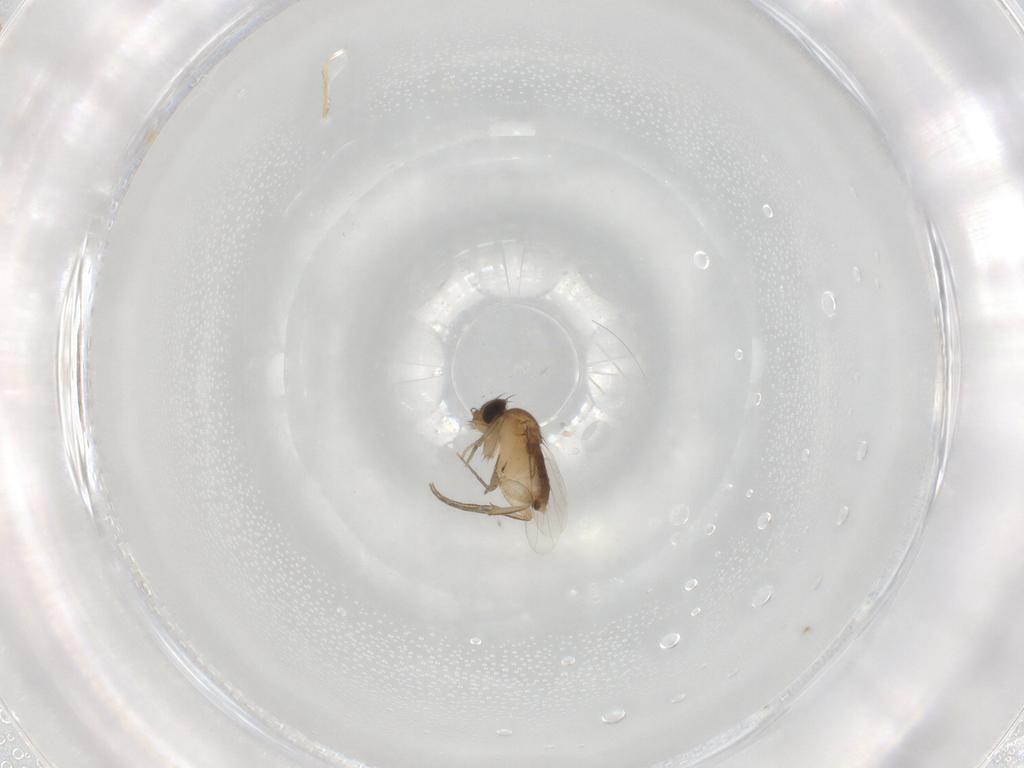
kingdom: Animalia
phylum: Arthropoda
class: Insecta
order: Diptera
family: Phoridae
